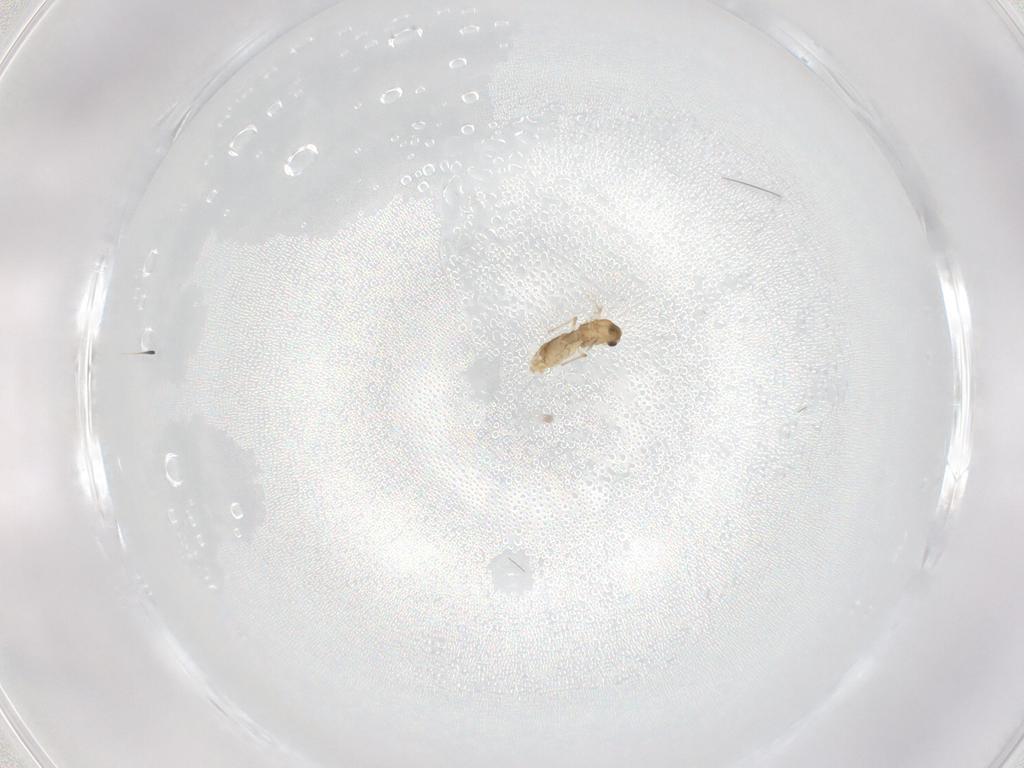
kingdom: Animalia
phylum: Arthropoda
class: Insecta
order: Diptera
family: Chironomidae
